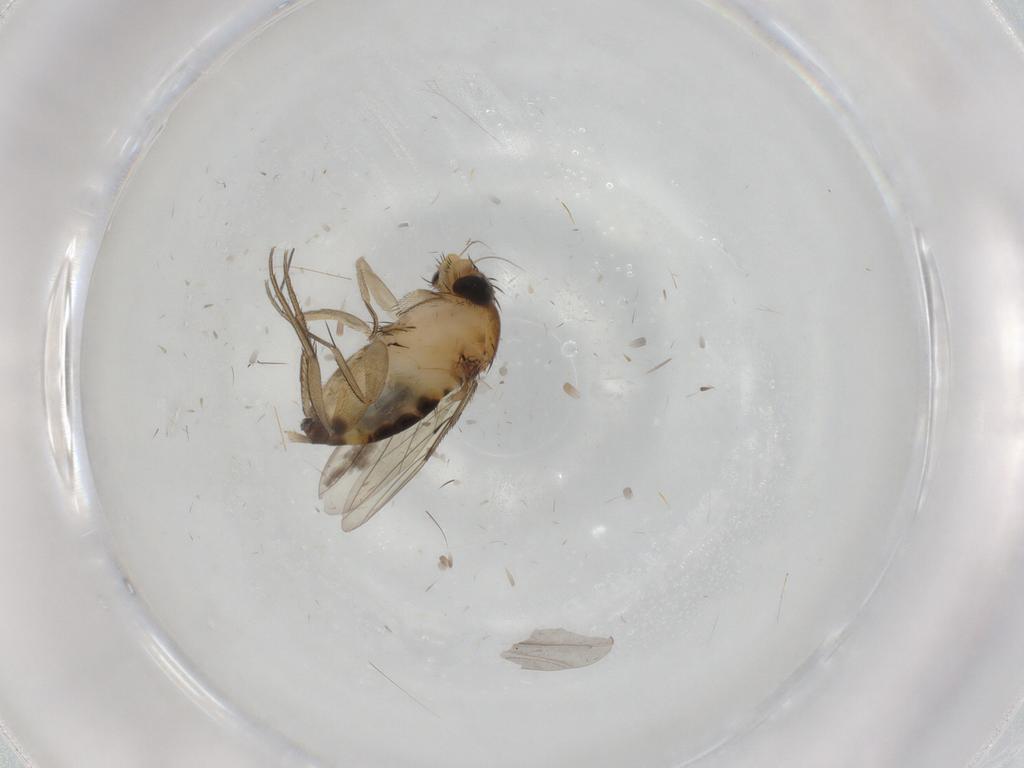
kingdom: Animalia
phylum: Arthropoda
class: Insecta
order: Diptera
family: Phoridae
